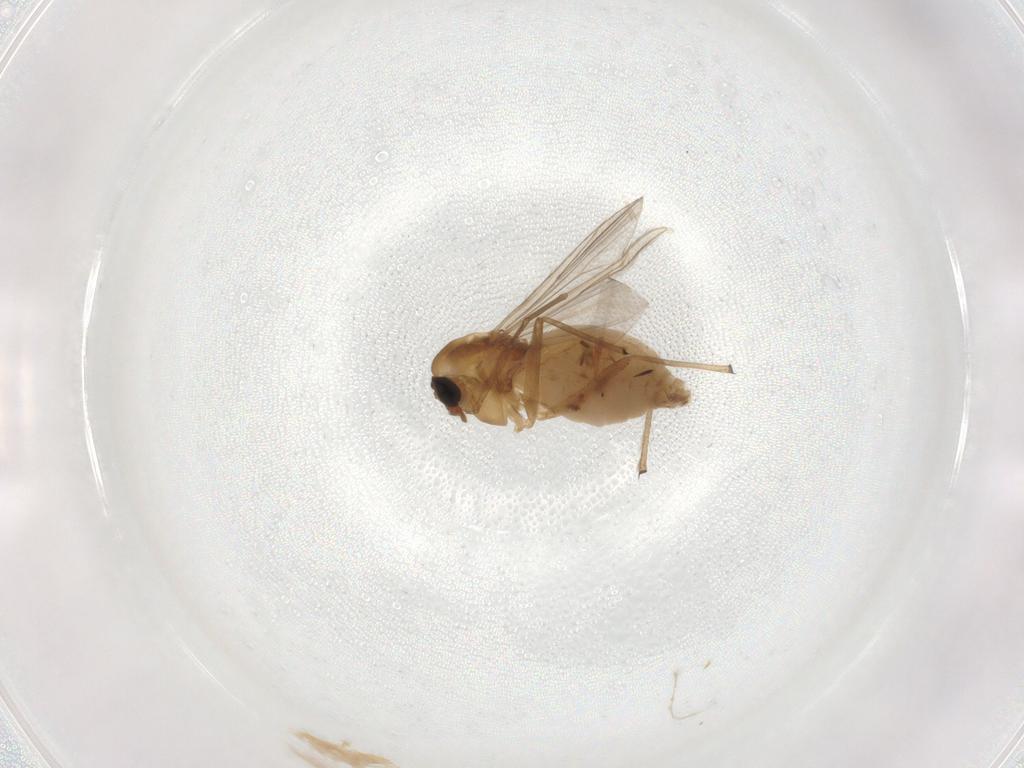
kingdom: Animalia
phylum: Arthropoda
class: Insecta
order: Diptera
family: Chironomidae
